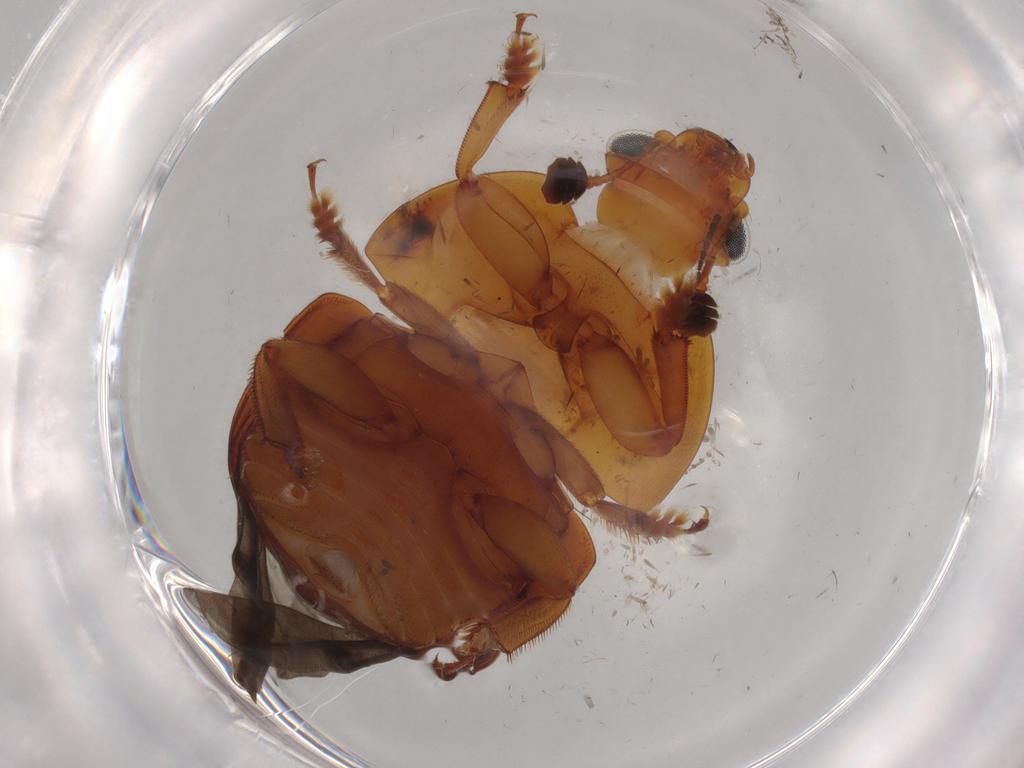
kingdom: Animalia
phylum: Arthropoda
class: Insecta
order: Coleoptera
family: Nitidulidae
